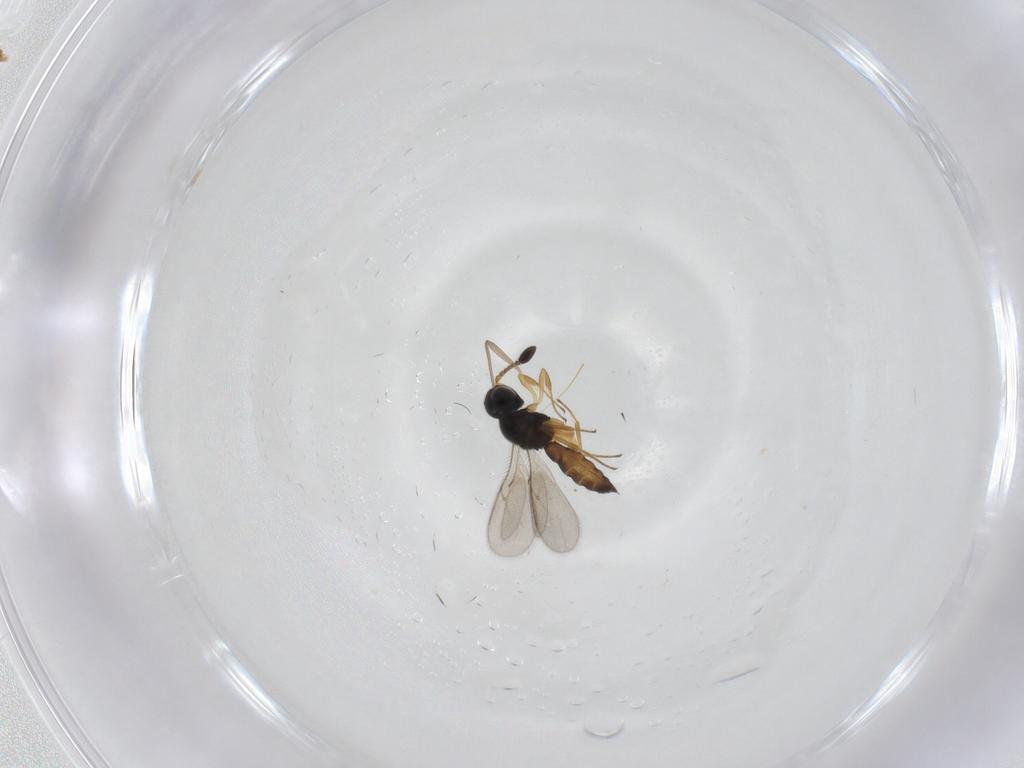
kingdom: Animalia
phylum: Arthropoda
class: Insecta
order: Hymenoptera
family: Scelionidae
